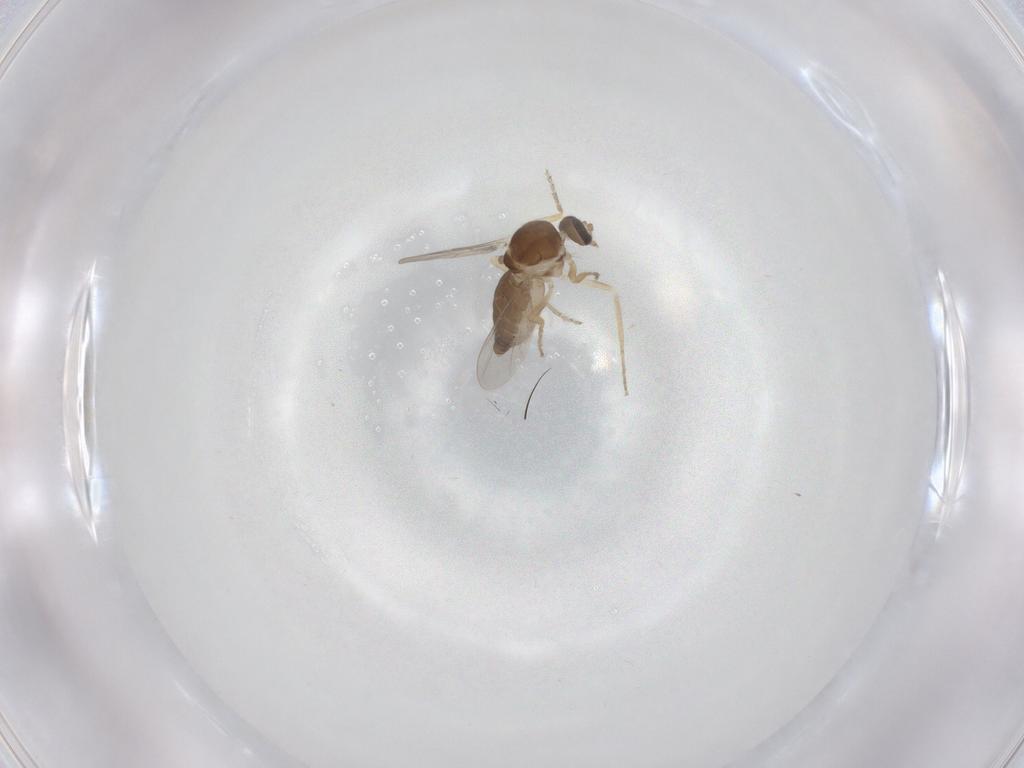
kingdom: Animalia
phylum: Arthropoda
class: Insecta
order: Diptera
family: Ceratopogonidae
